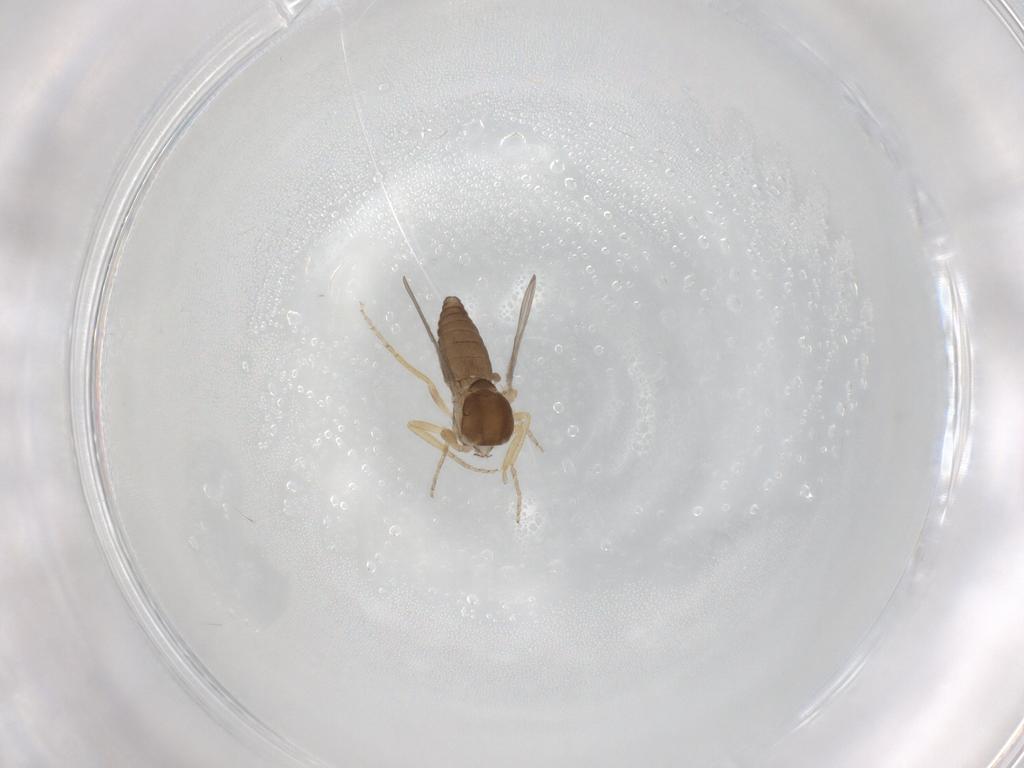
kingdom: Animalia
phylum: Arthropoda
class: Insecta
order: Diptera
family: Ceratopogonidae
